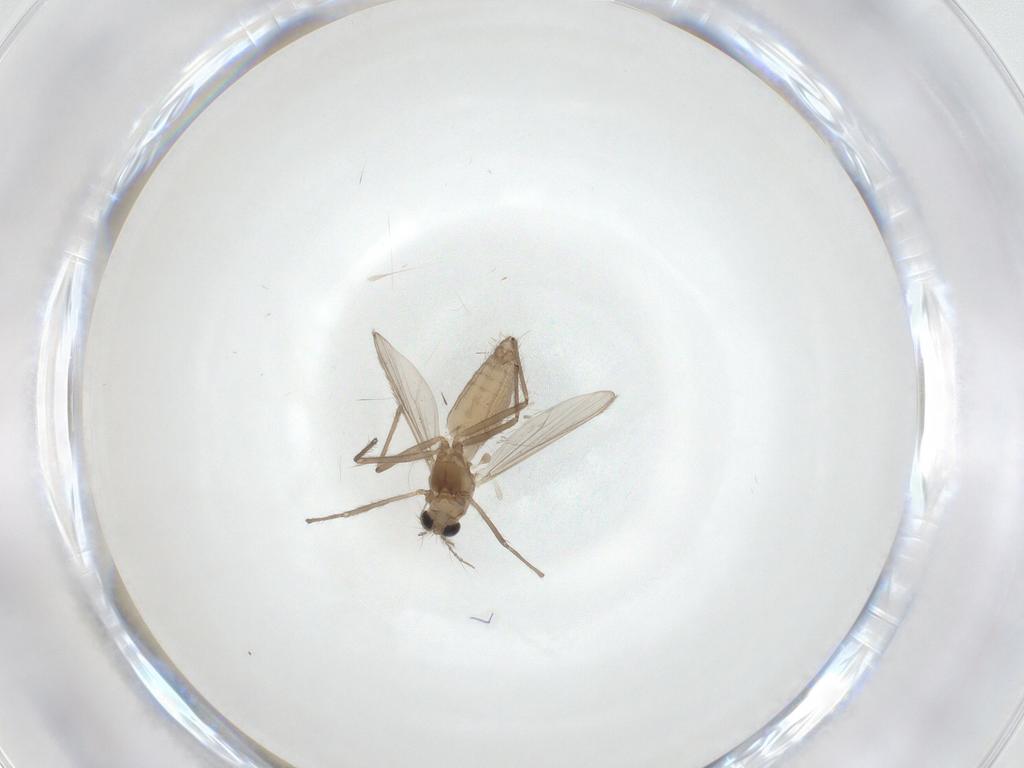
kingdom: Animalia
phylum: Arthropoda
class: Insecta
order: Diptera
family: Chironomidae
